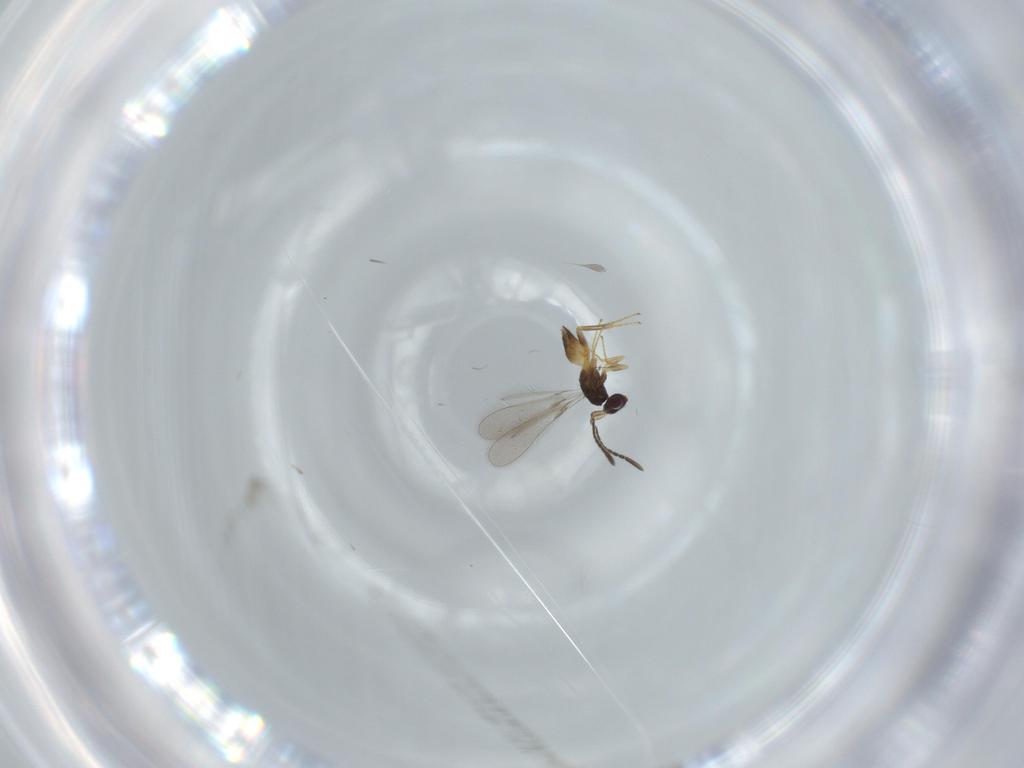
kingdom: Animalia
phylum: Arthropoda
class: Insecta
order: Hymenoptera
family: Mymaridae
